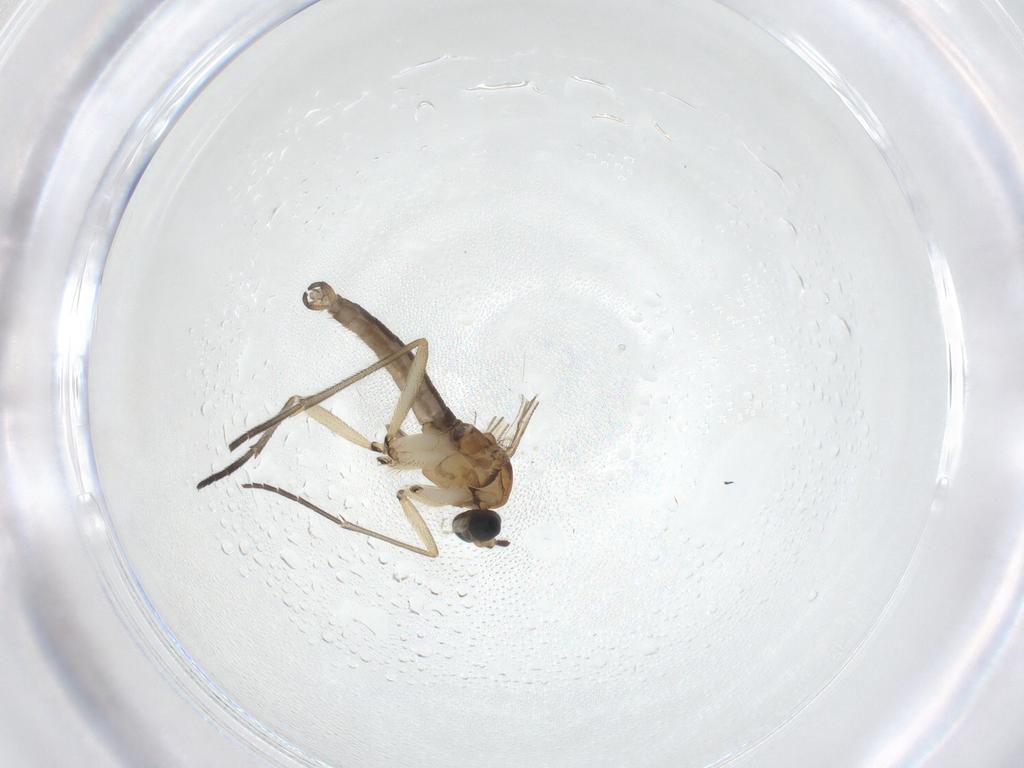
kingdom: Animalia
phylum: Arthropoda
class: Insecta
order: Diptera
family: Sciaridae
